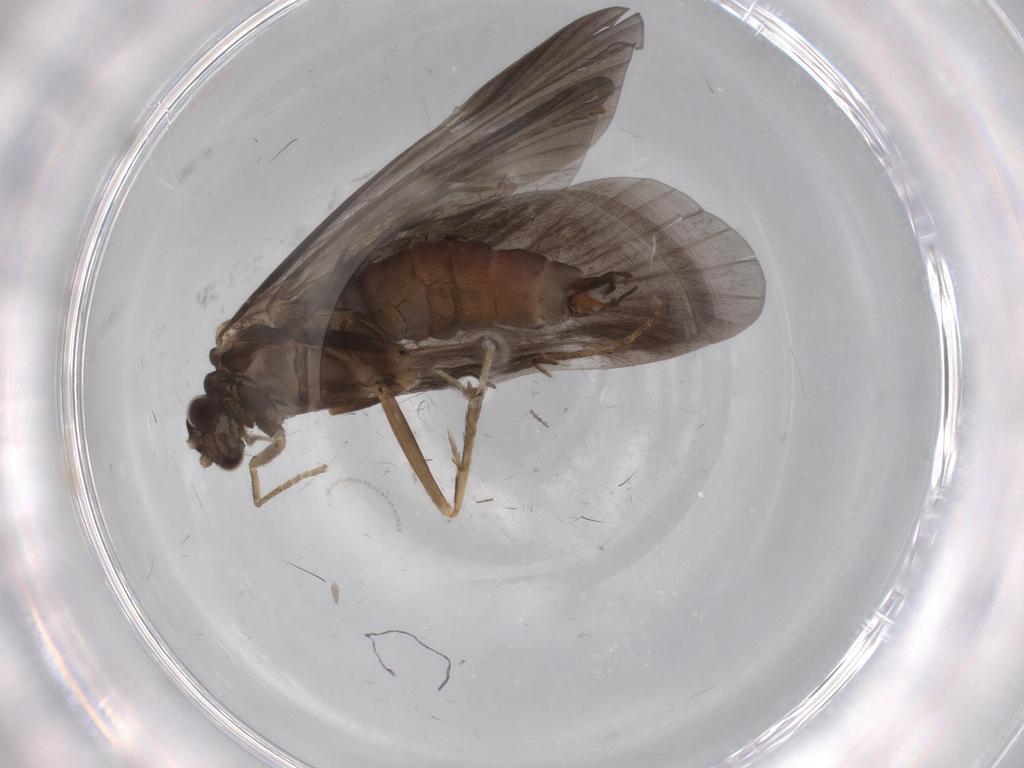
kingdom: Animalia
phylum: Arthropoda
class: Insecta
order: Trichoptera
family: Hydropsychidae
